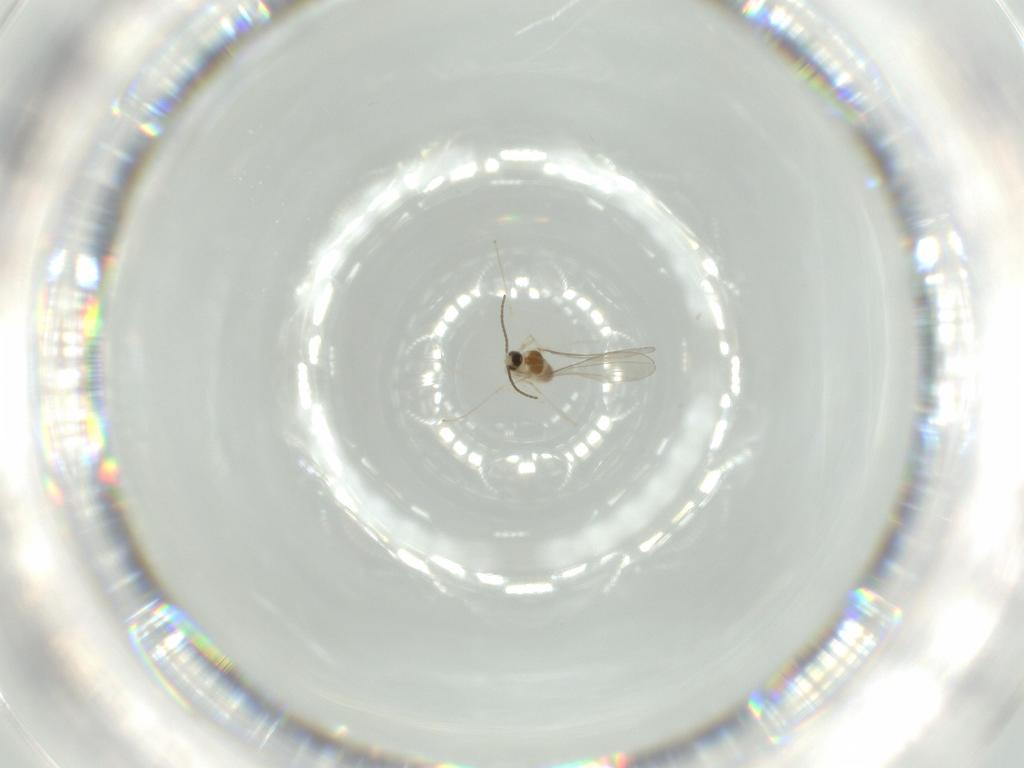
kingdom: Animalia
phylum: Arthropoda
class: Insecta
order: Diptera
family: Cecidomyiidae
